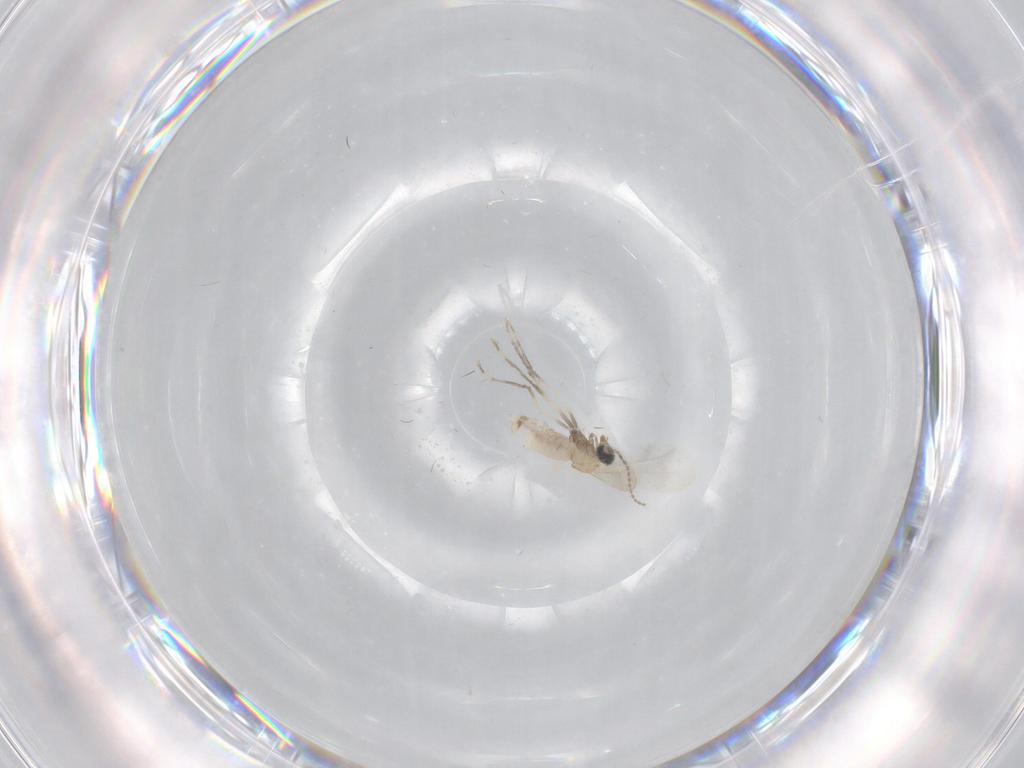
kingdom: Animalia
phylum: Arthropoda
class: Insecta
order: Diptera
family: Cecidomyiidae
